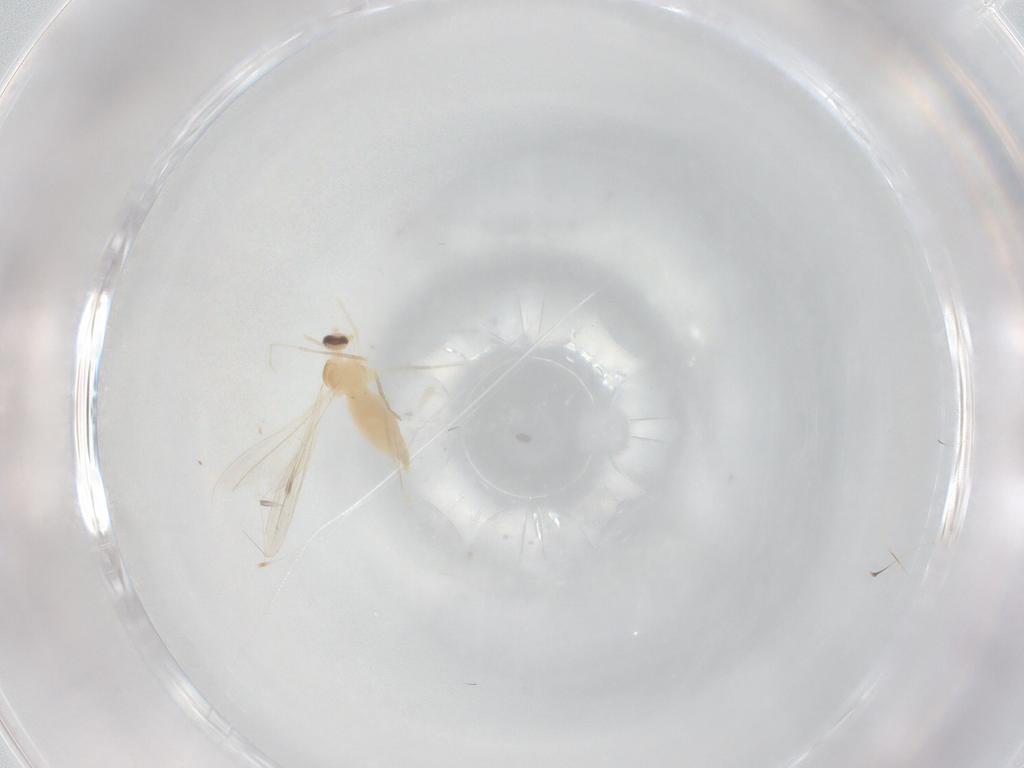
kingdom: Animalia
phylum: Arthropoda
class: Insecta
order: Diptera
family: Cecidomyiidae
